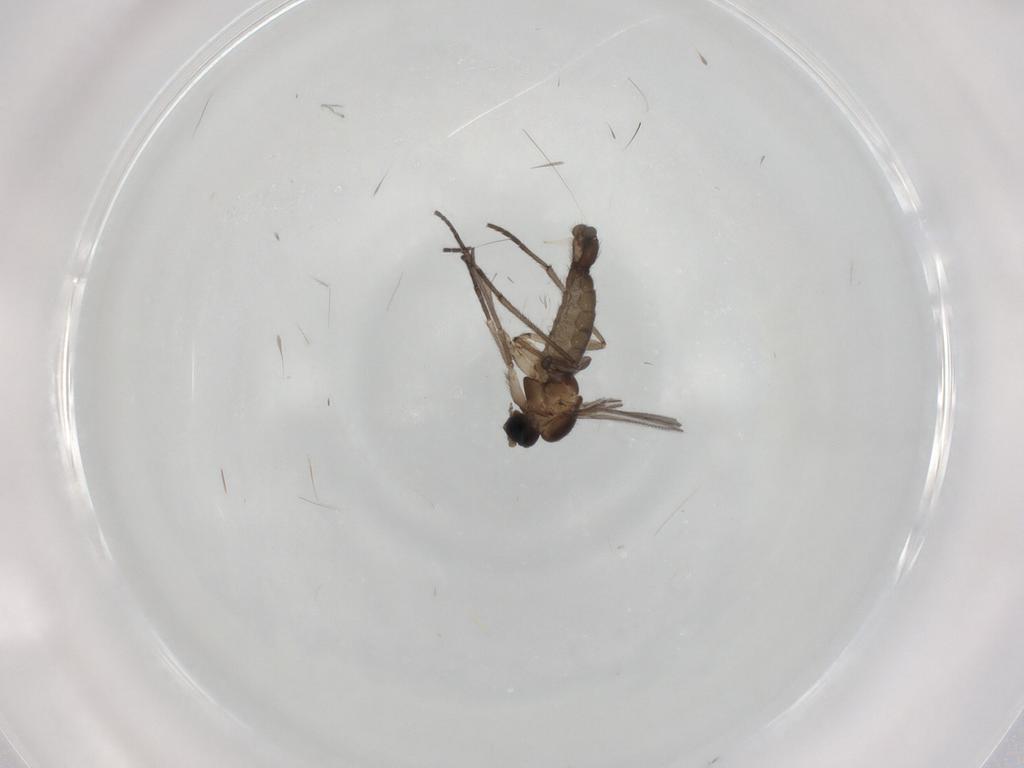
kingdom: Animalia
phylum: Arthropoda
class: Insecta
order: Diptera
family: Sciaridae
